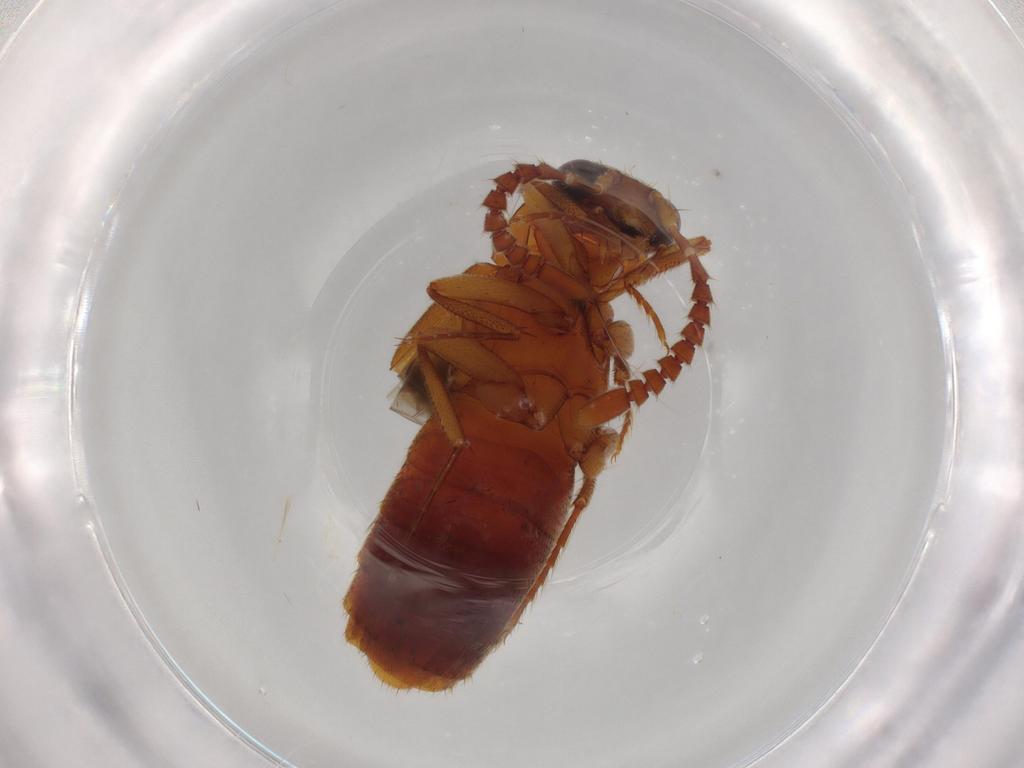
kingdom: Animalia
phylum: Arthropoda
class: Insecta
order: Coleoptera
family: Staphylinidae
